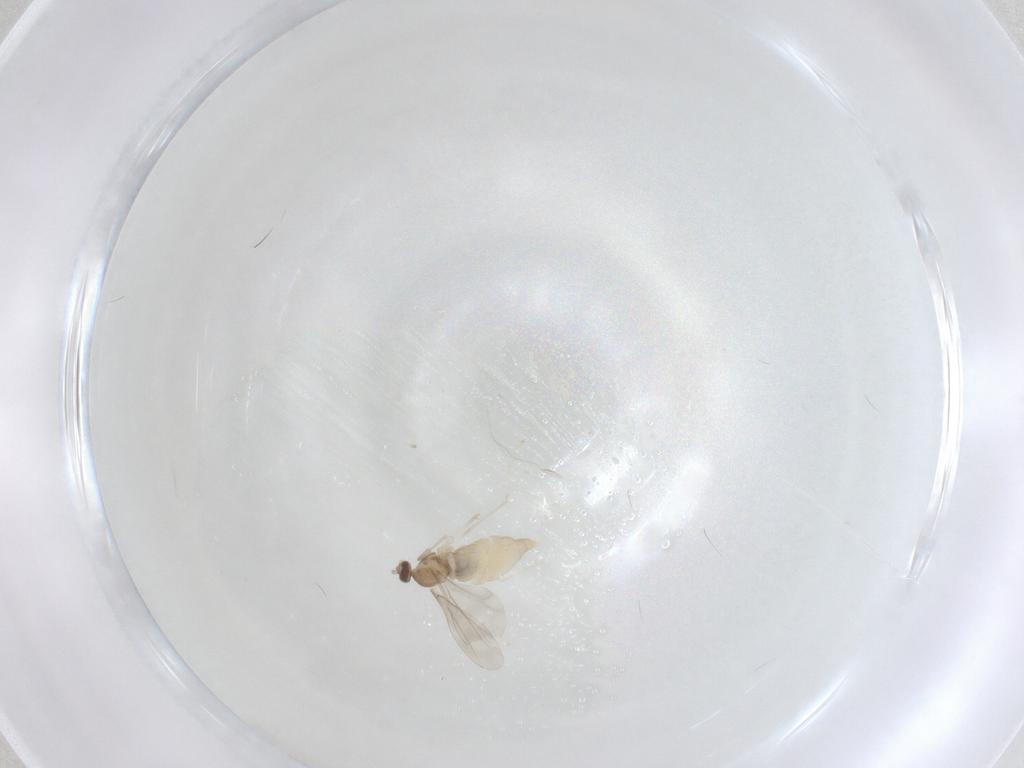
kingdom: Animalia
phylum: Arthropoda
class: Insecta
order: Diptera
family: Cecidomyiidae
